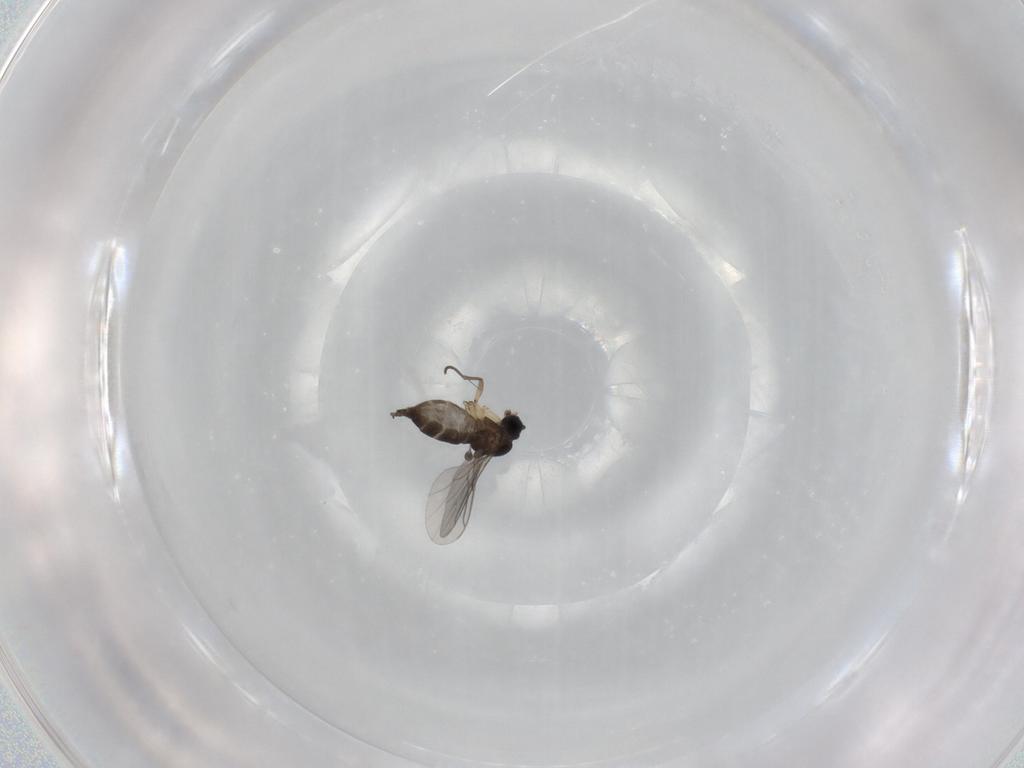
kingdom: Animalia
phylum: Arthropoda
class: Insecta
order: Diptera
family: Sciaridae
